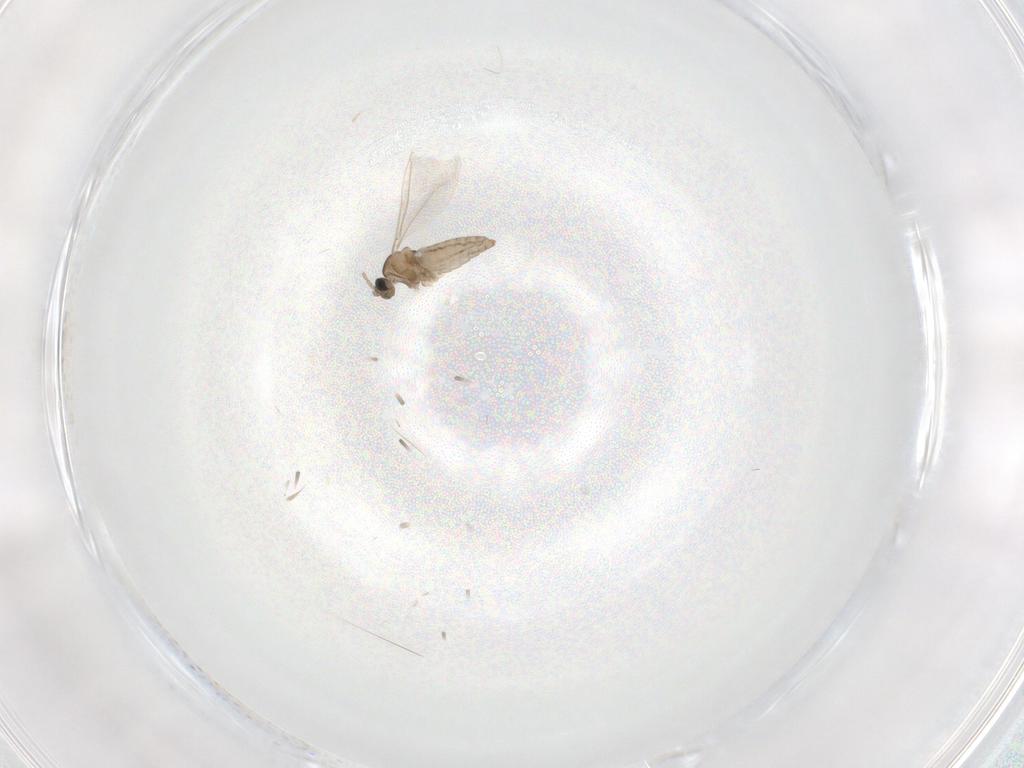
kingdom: Animalia
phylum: Arthropoda
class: Insecta
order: Diptera
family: Cecidomyiidae
